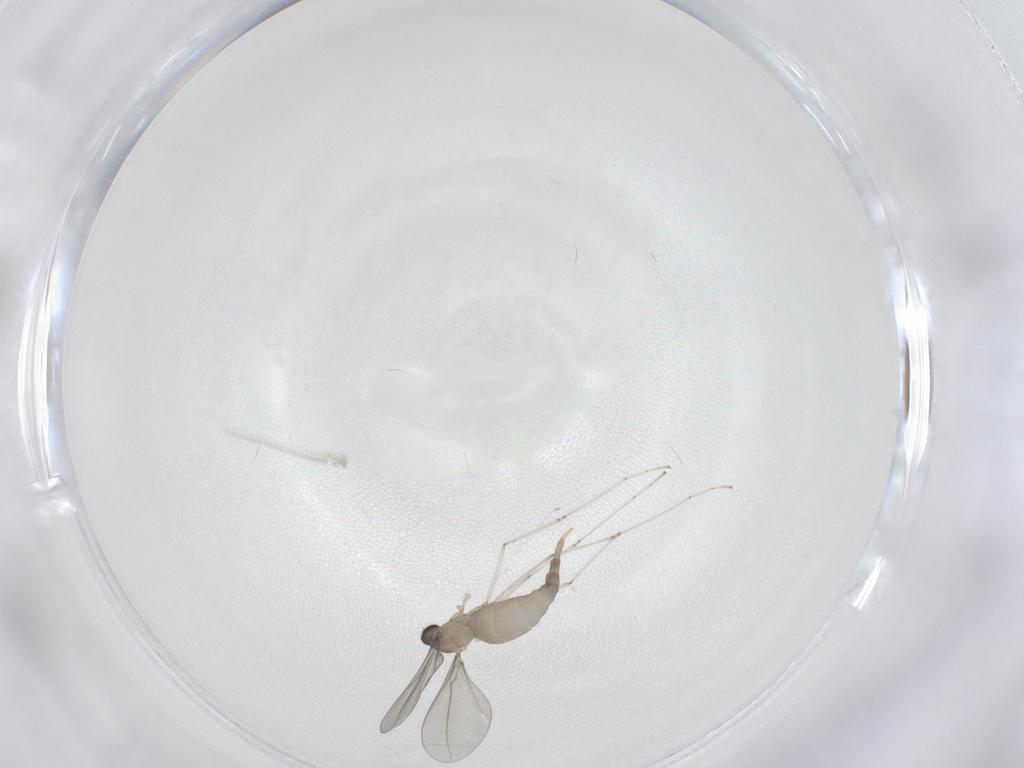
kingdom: Animalia
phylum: Arthropoda
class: Insecta
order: Diptera
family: Cecidomyiidae
